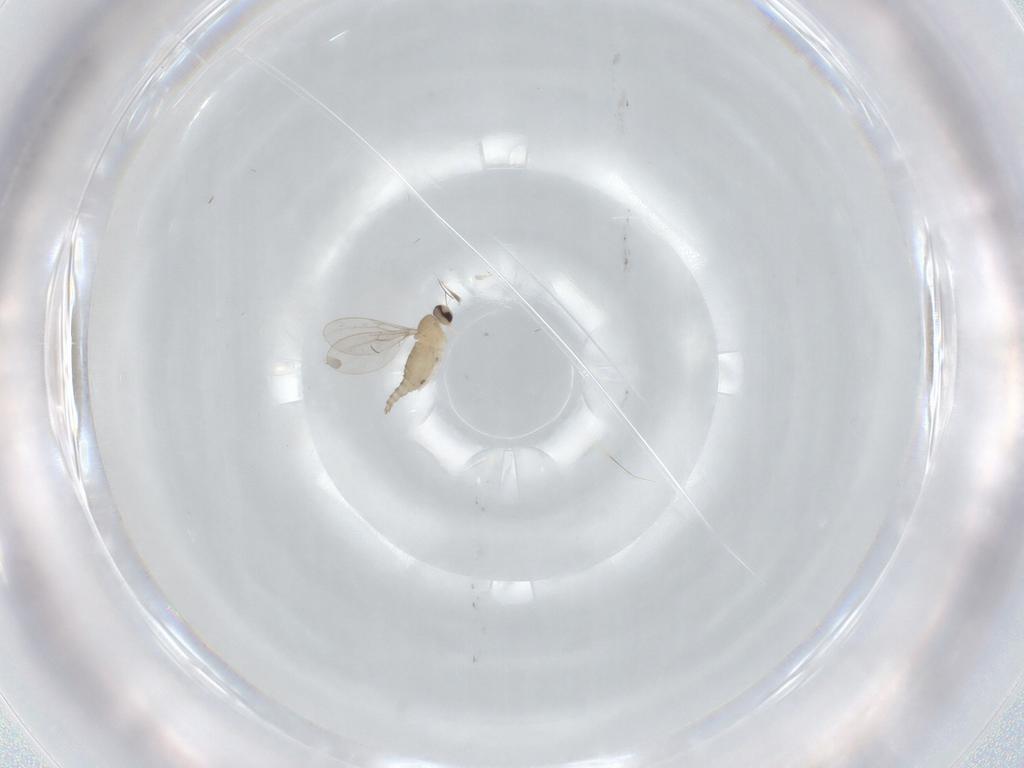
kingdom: Animalia
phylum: Arthropoda
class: Insecta
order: Diptera
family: Cecidomyiidae
